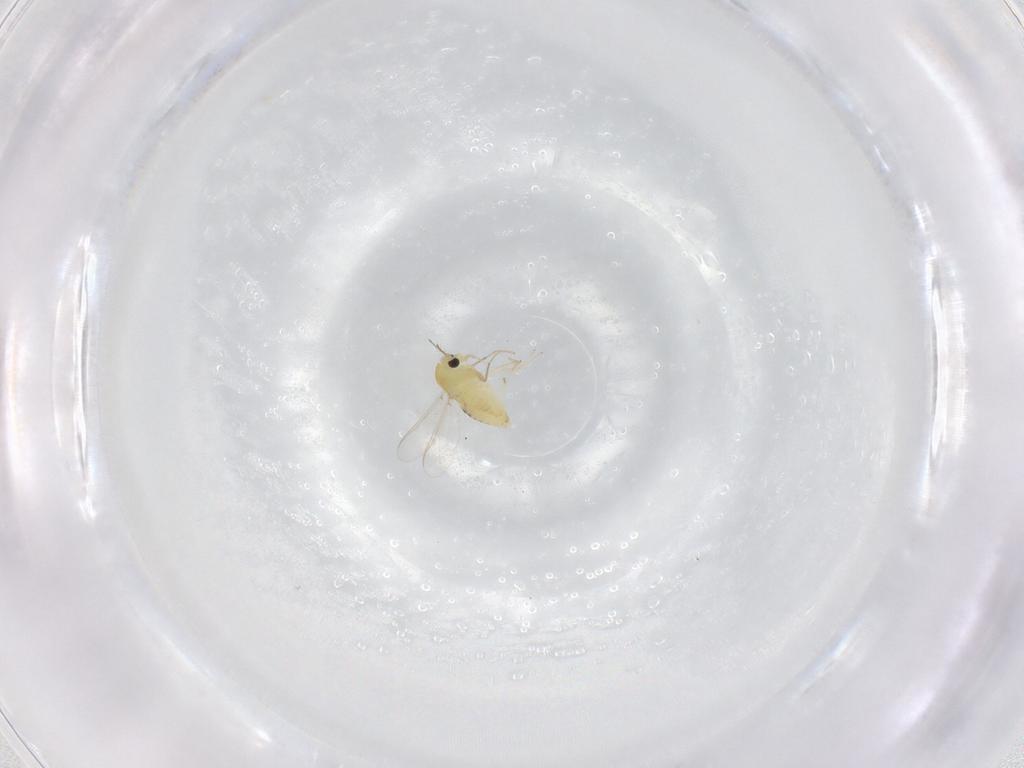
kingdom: Animalia
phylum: Arthropoda
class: Insecta
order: Diptera
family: Chironomidae
